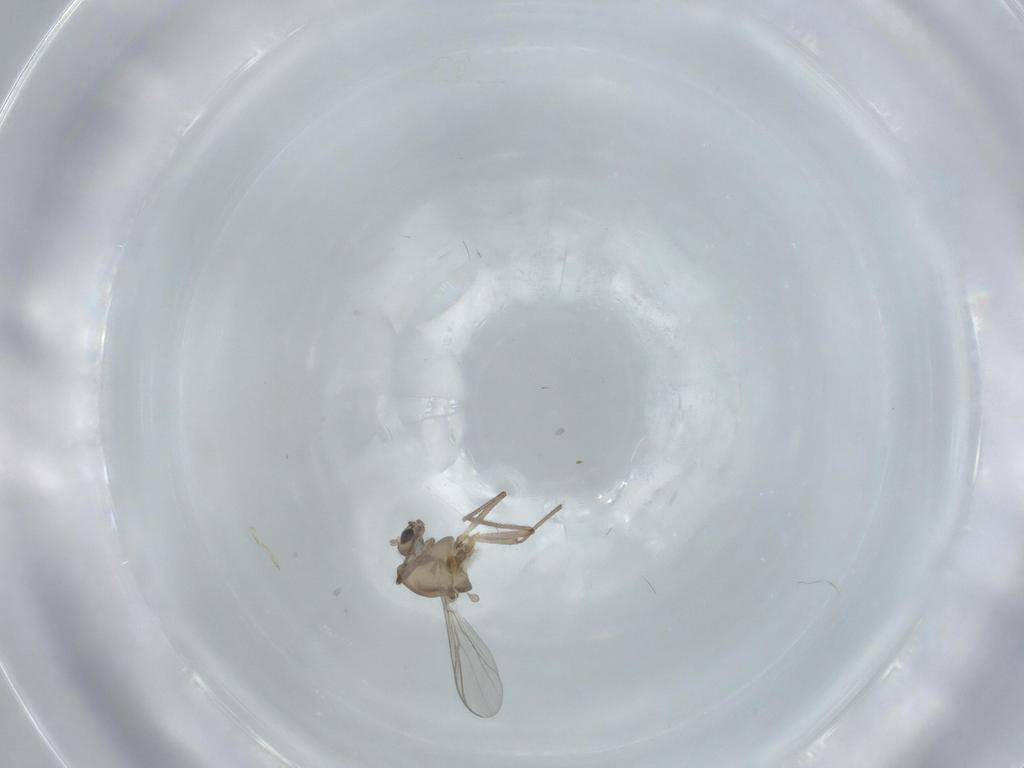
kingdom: Animalia
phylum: Arthropoda
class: Insecta
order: Diptera
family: Chironomidae
